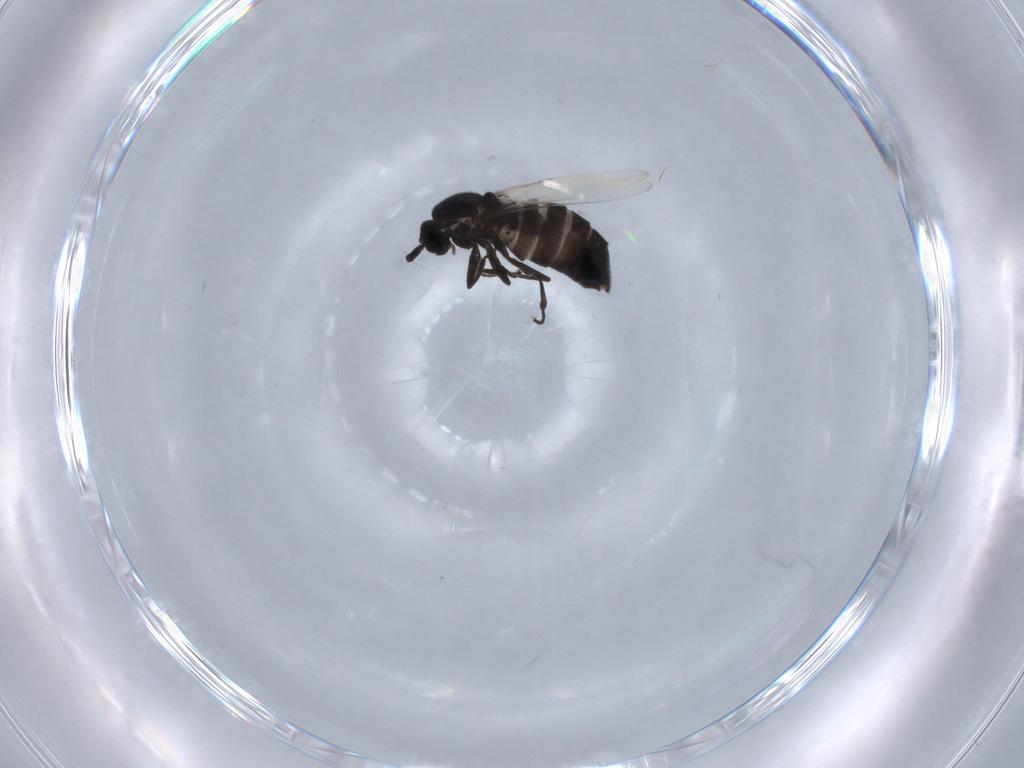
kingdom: Animalia
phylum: Arthropoda
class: Insecta
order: Diptera
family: Scatopsidae
